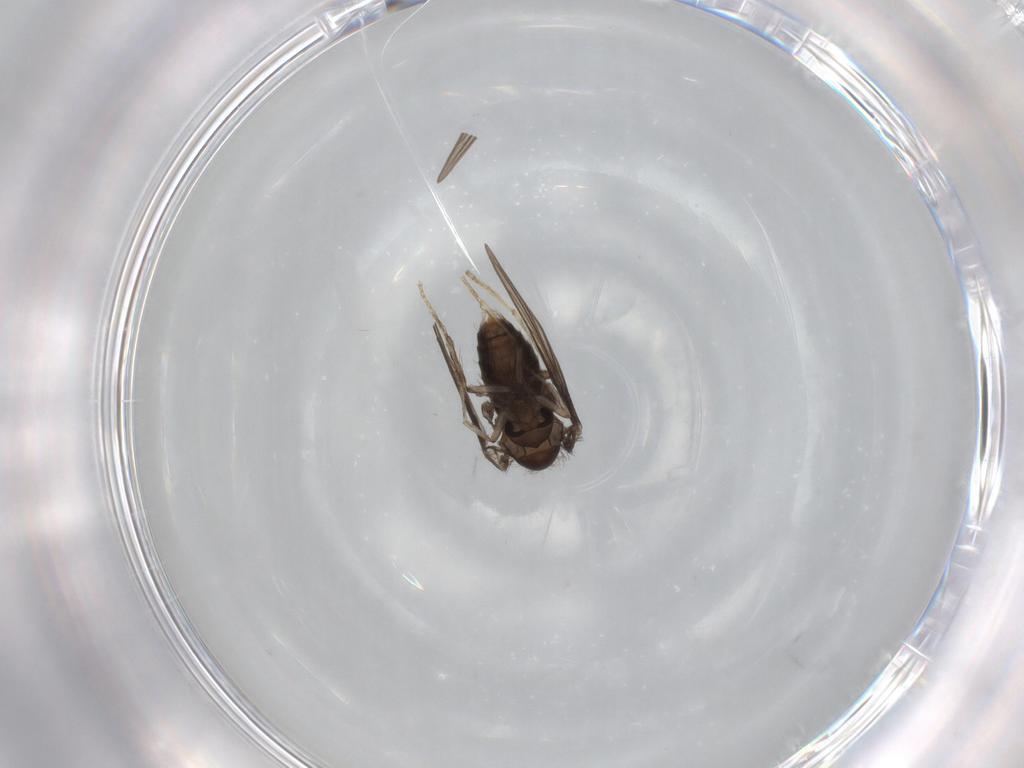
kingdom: Animalia
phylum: Arthropoda
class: Insecta
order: Diptera
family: Psychodidae
